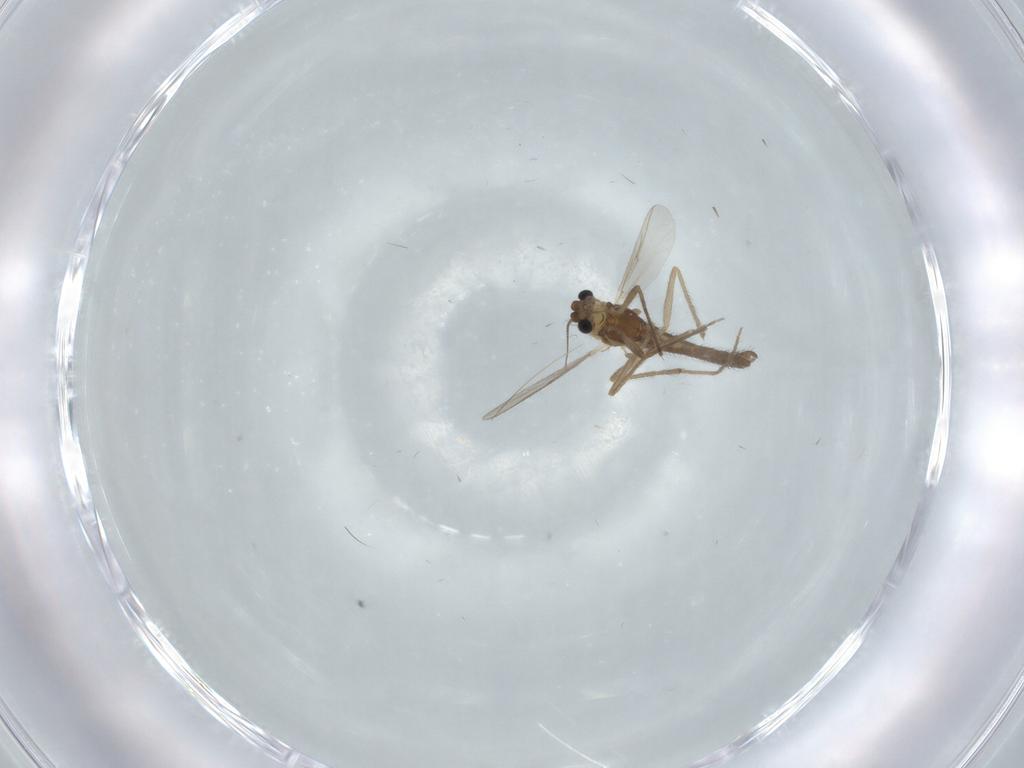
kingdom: Animalia
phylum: Arthropoda
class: Insecta
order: Diptera
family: Chironomidae
